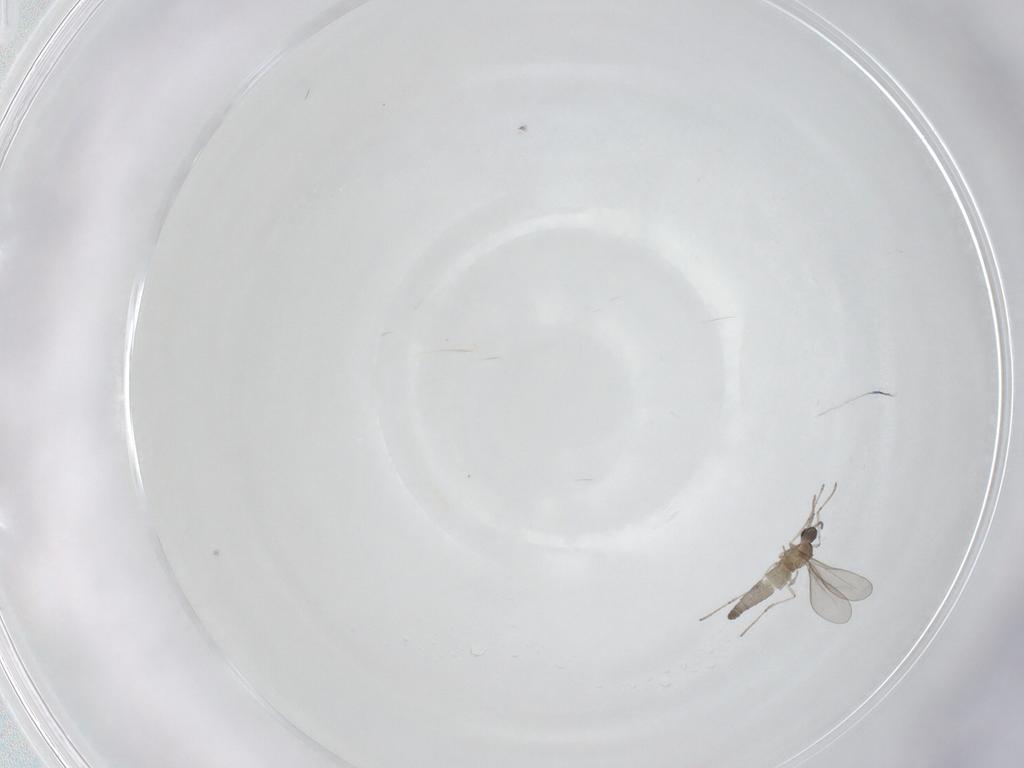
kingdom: Animalia
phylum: Arthropoda
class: Insecta
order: Diptera
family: Cecidomyiidae
